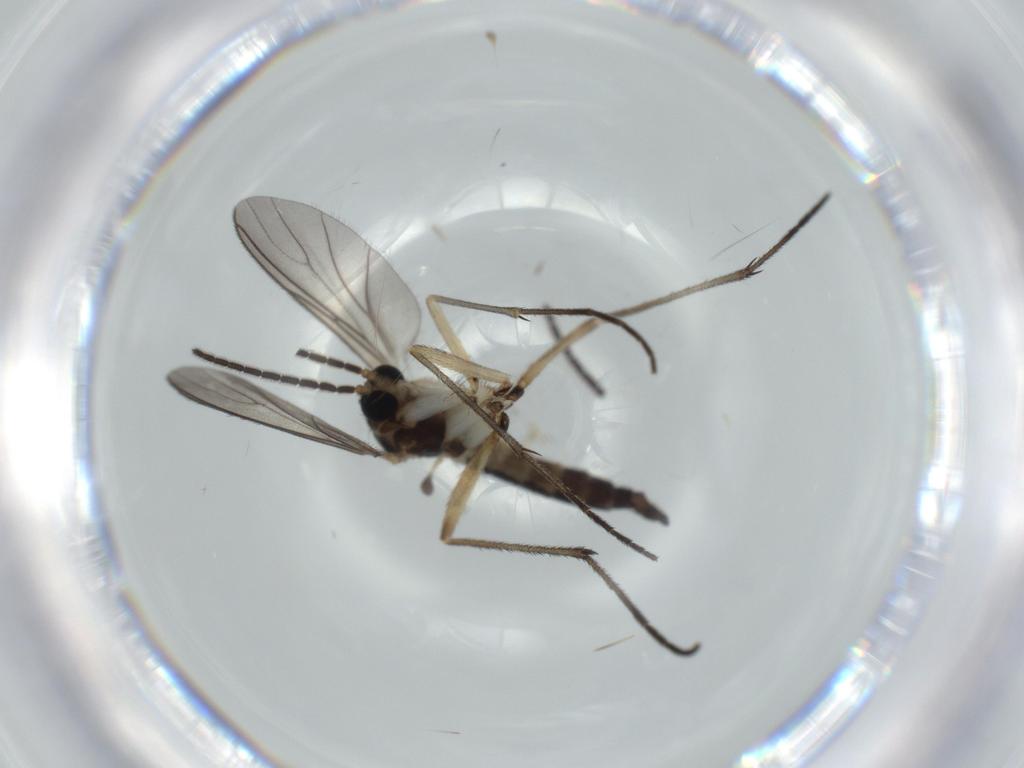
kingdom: Animalia
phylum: Arthropoda
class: Insecta
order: Diptera
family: Sciaridae
